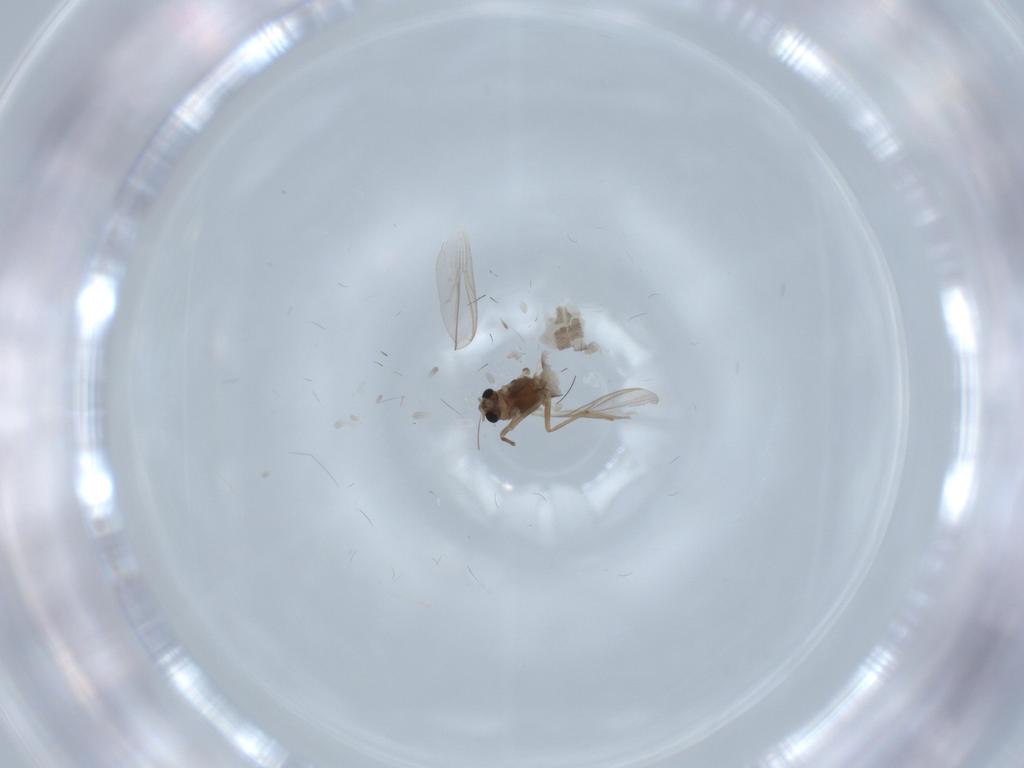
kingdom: Animalia
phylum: Arthropoda
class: Insecta
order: Diptera
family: Chironomidae
